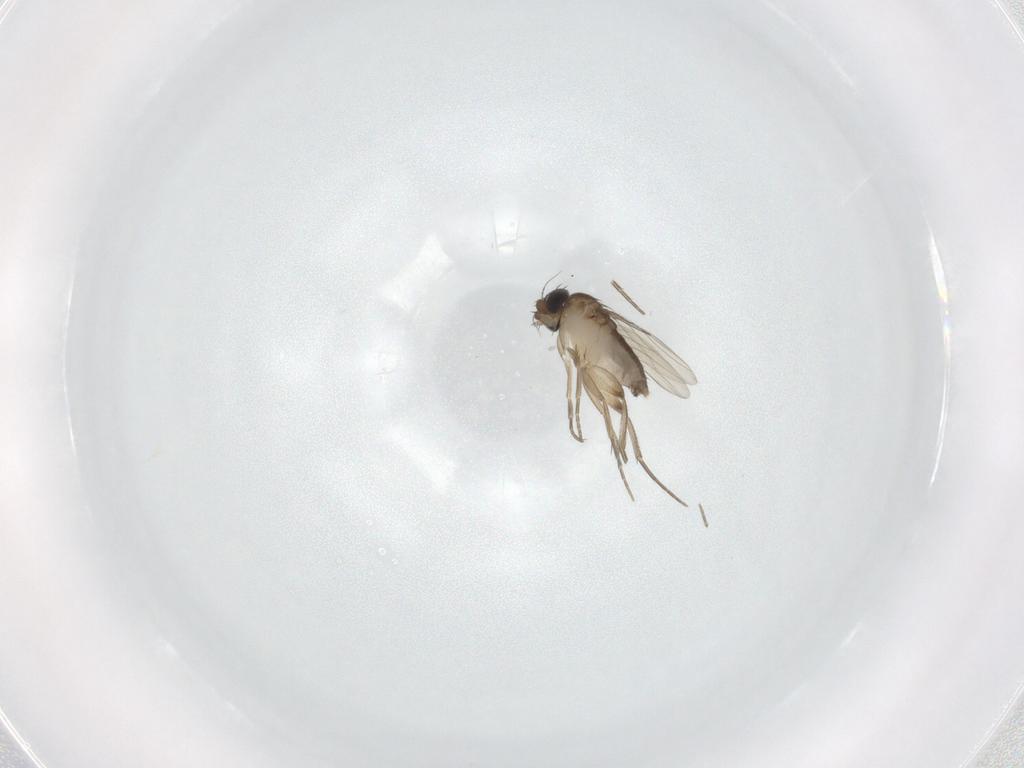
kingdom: Animalia
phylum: Arthropoda
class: Insecta
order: Diptera
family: Phoridae
